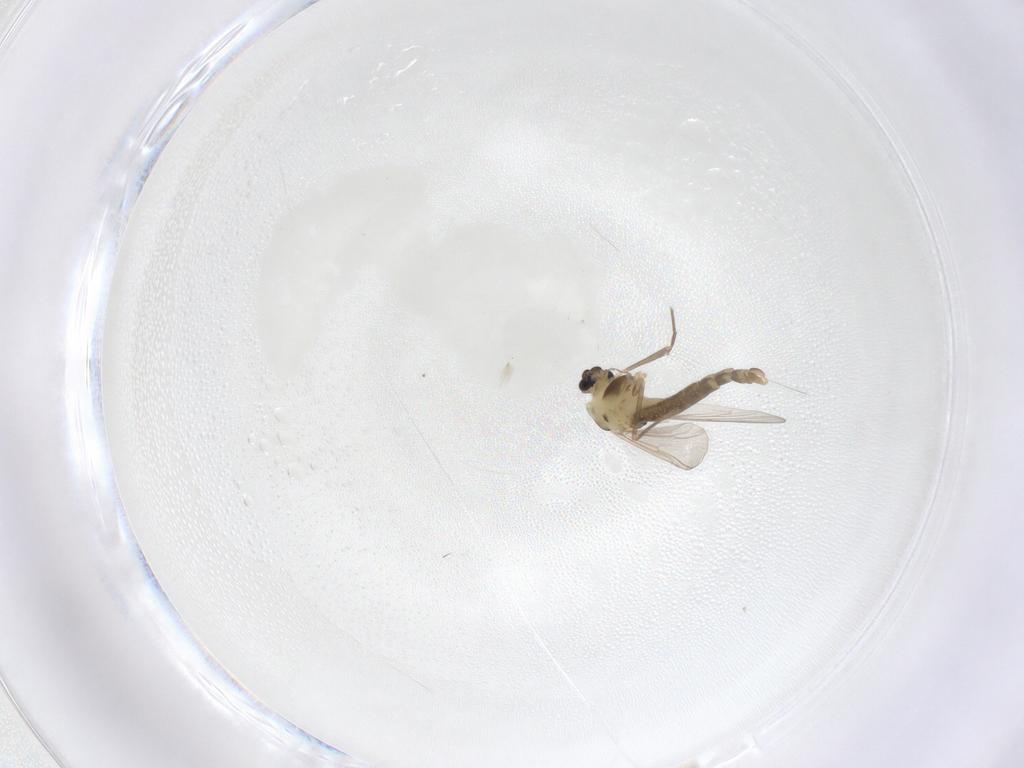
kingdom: Animalia
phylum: Arthropoda
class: Insecta
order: Diptera
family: Chironomidae
